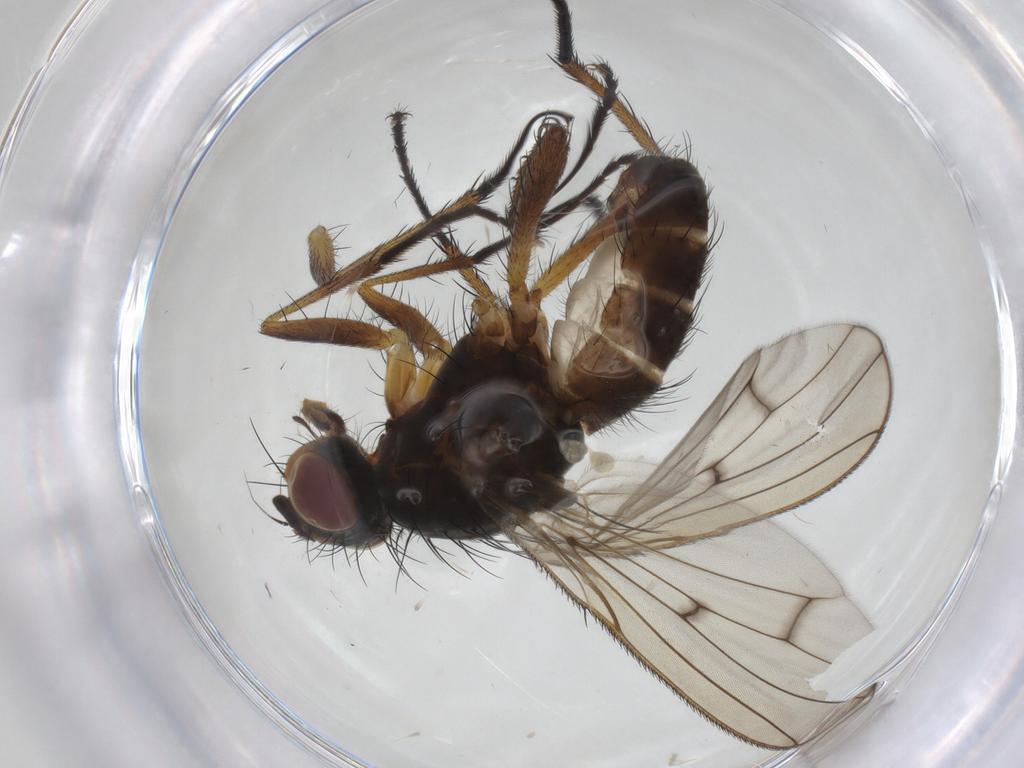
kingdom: Animalia
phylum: Arthropoda
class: Insecta
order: Diptera
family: Anthomyiidae
